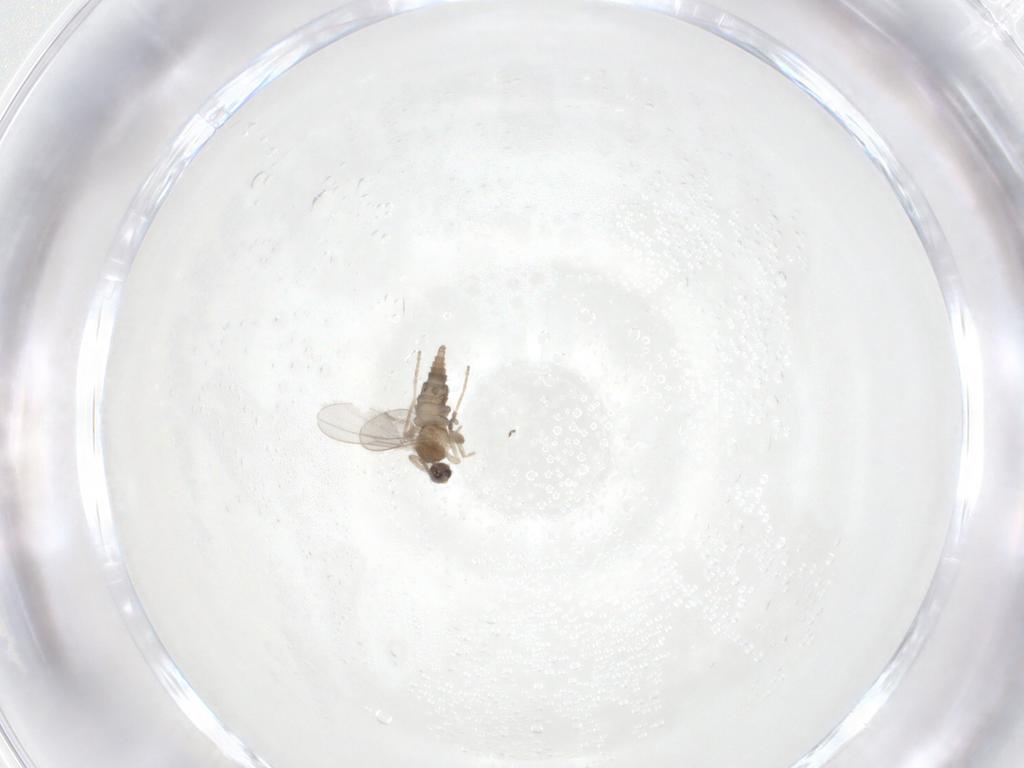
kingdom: Animalia
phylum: Arthropoda
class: Insecta
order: Diptera
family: Cecidomyiidae
